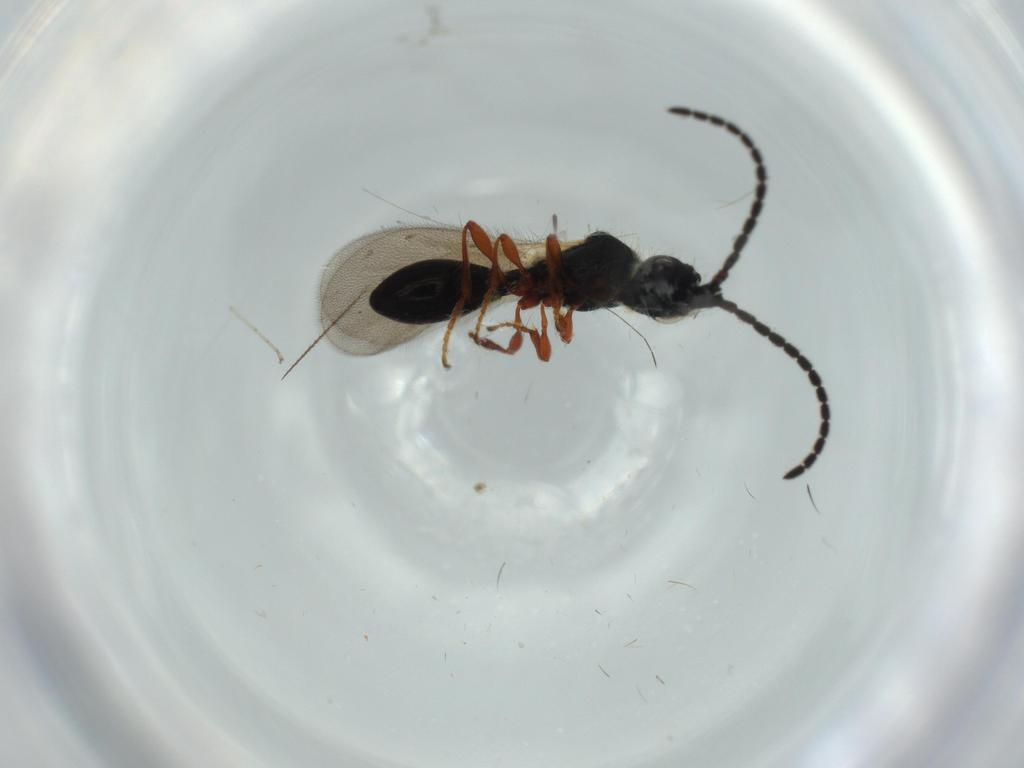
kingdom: Animalia
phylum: Arthropoda
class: Insecta
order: Hymenoptera
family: Diapriidae
